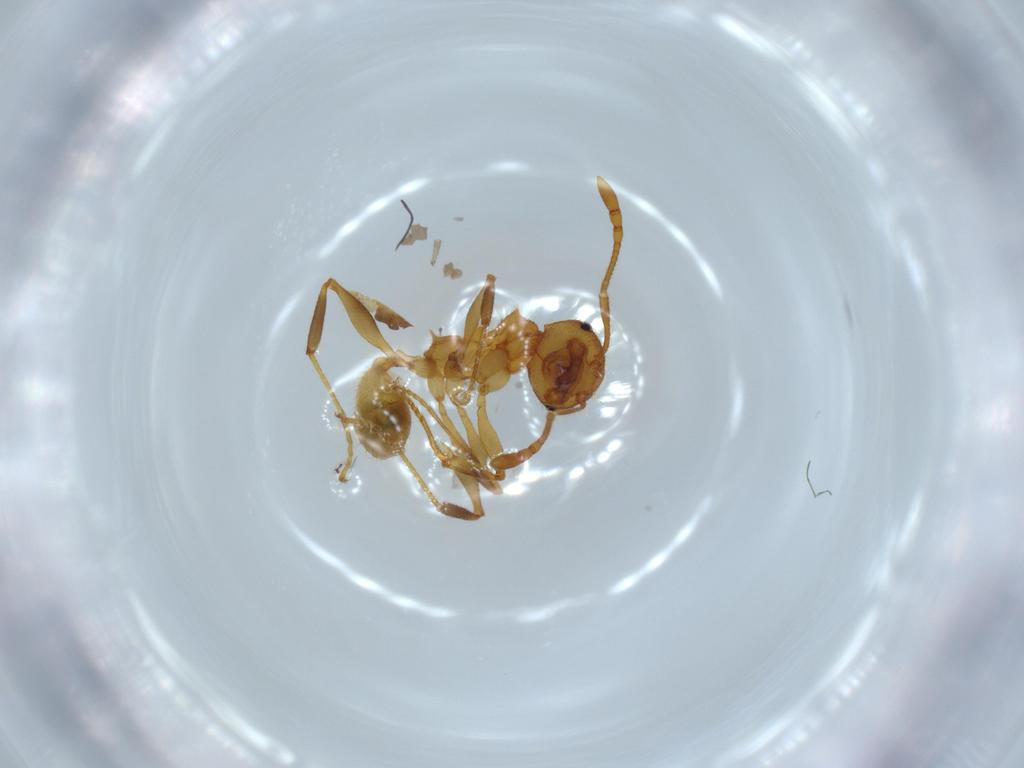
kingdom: Animalia
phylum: Arthropoda
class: Insecta
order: Hymenoptera
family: Formicidae
